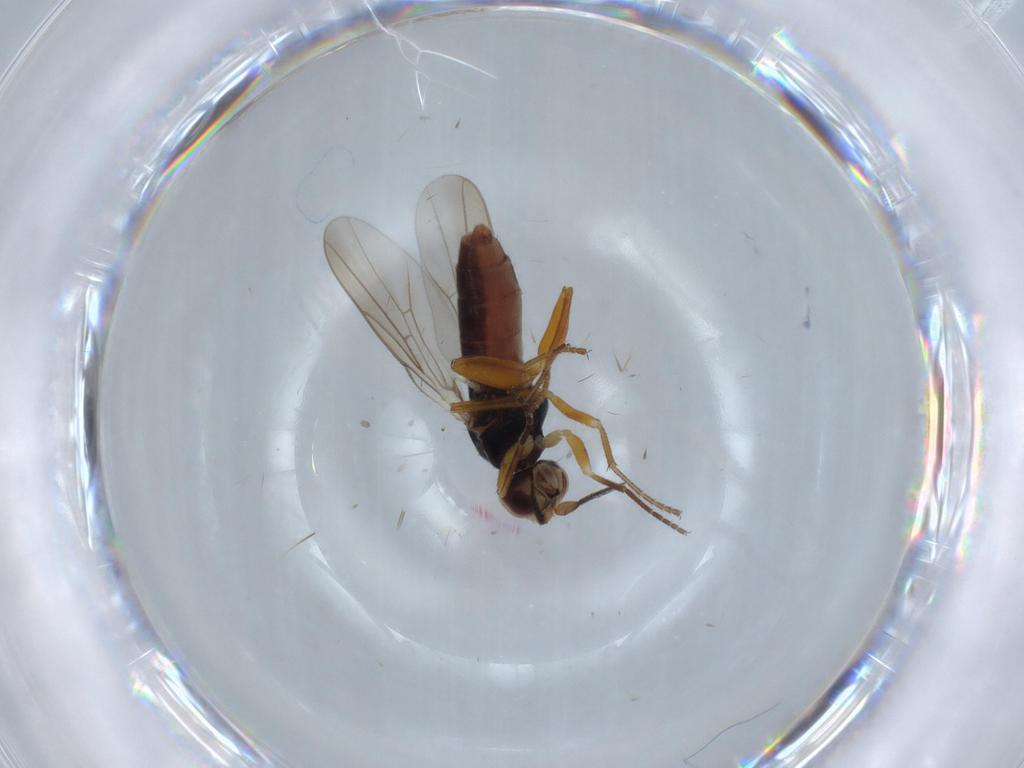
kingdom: Animalia
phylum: Arthropoda
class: Insecta
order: Diptera
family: Chloropidae
